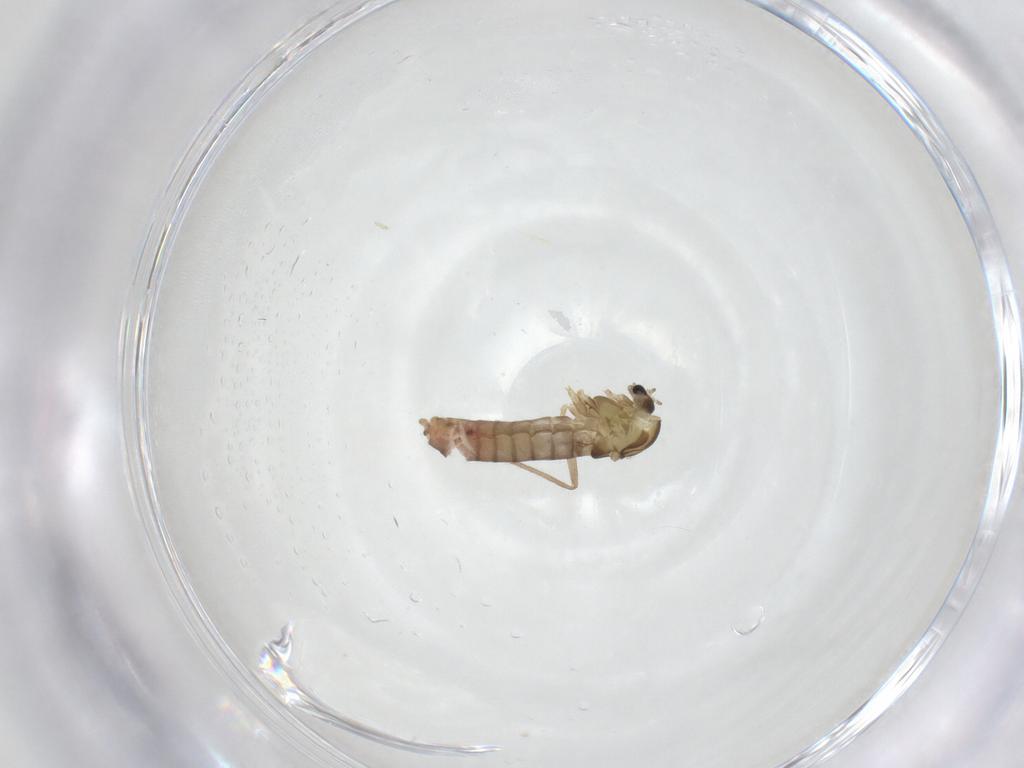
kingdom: Animalia
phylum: Arthropoda
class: Insecta
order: Diptera
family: Chironomidae
